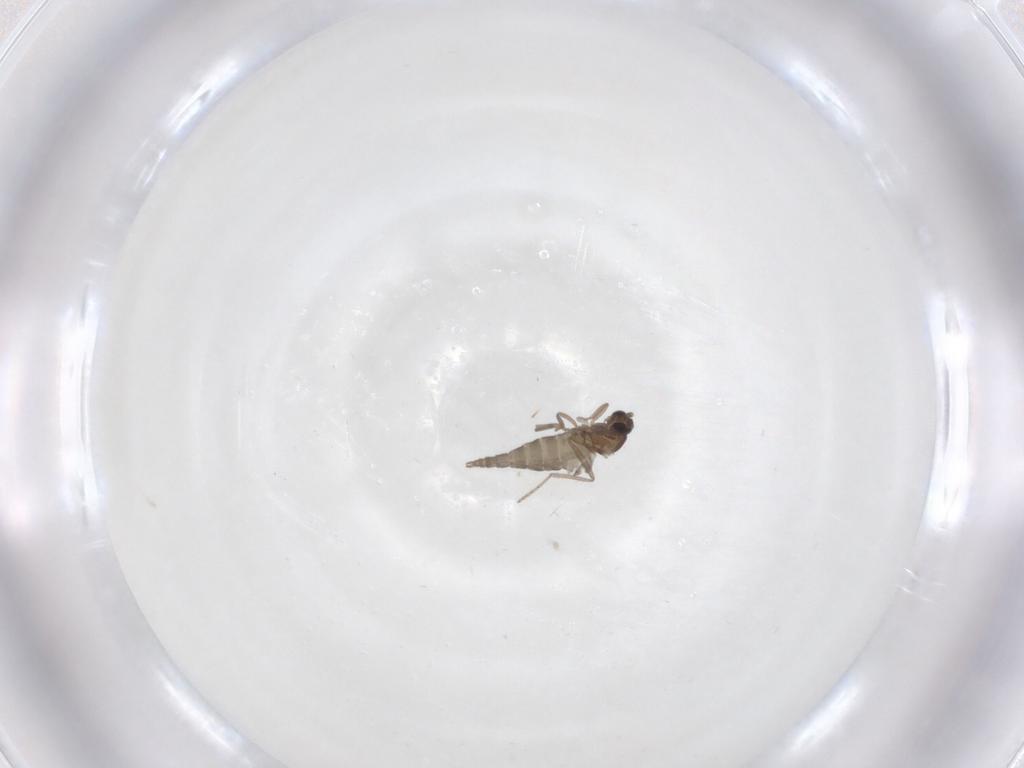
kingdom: Animalia
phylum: Arthropoda
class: Insecta
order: Diptera
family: Cecidomyiidae
